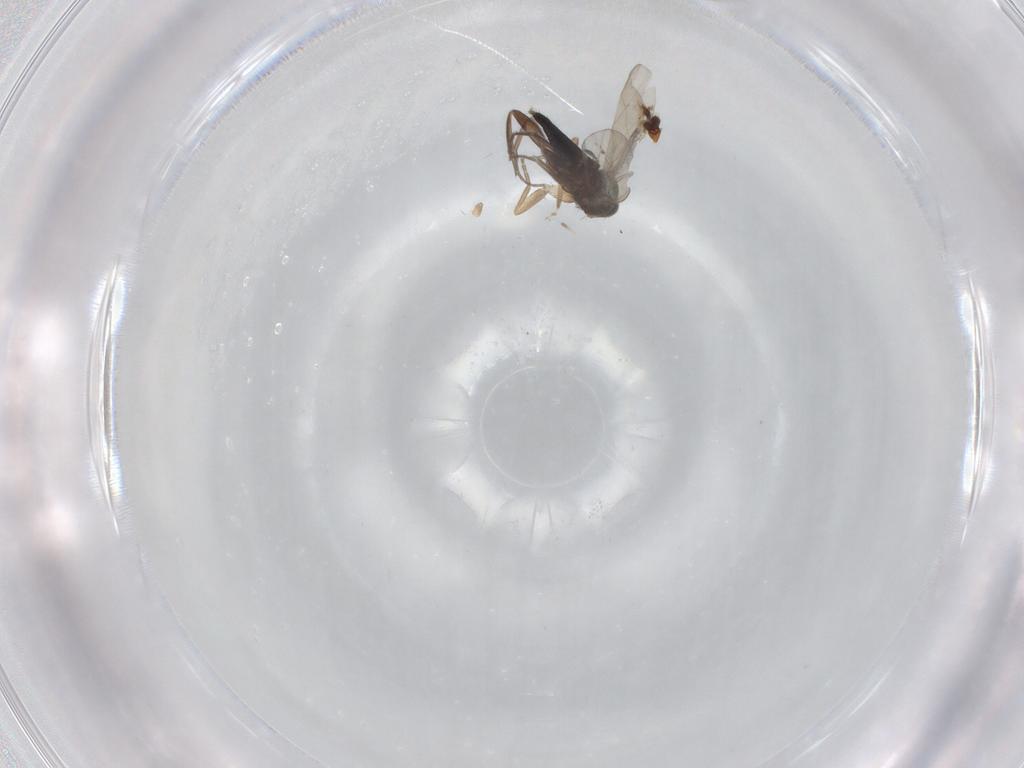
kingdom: Animalia
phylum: Arthropoda
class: Insecta
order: Diptera
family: Phoridae
